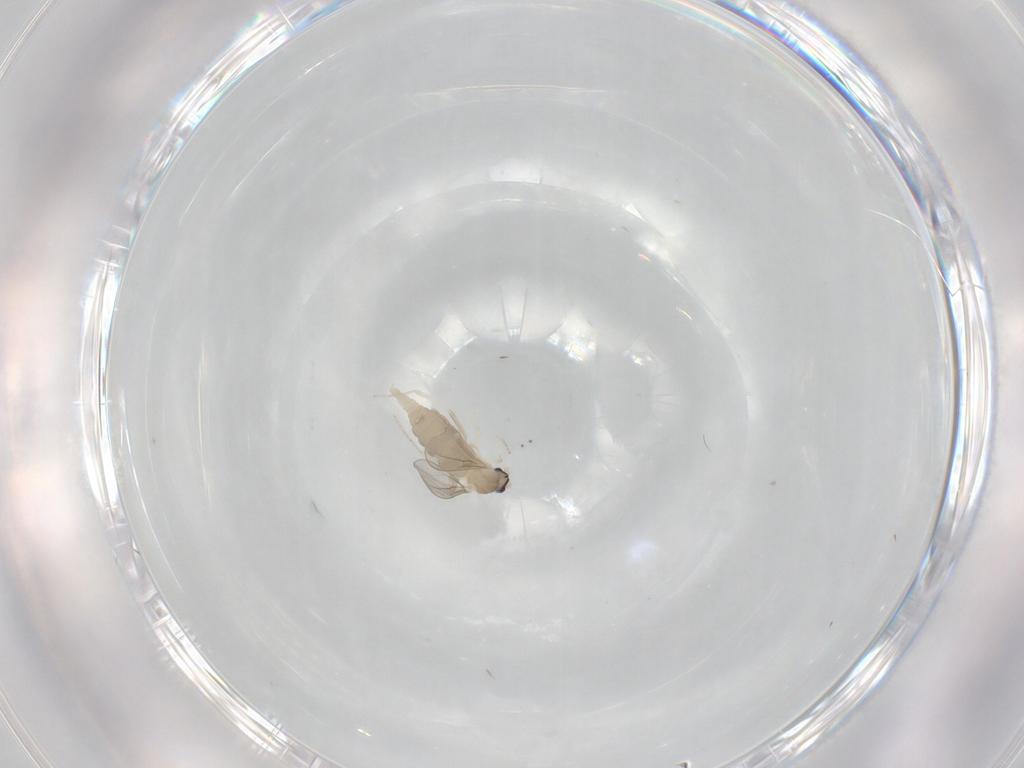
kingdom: Animalia
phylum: Arthropoda
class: Insecta
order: Diptera
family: Cecidomyiidae
